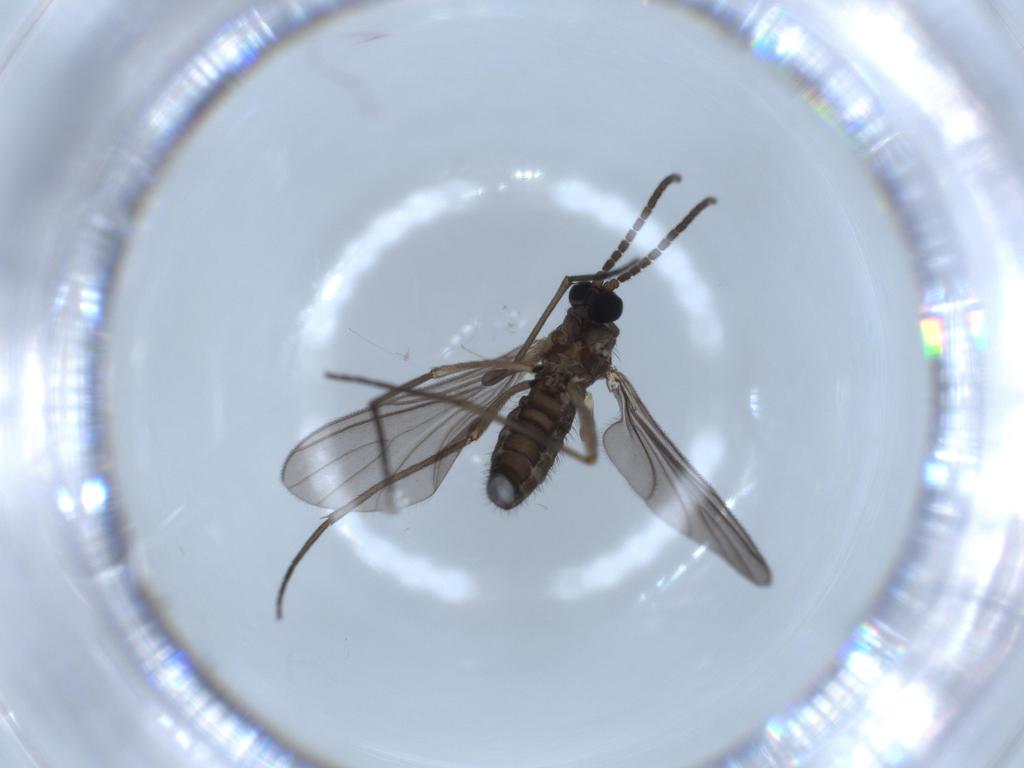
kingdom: Animalia
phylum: Arthropoda
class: Insecta
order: Diptera
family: Sciaridae
